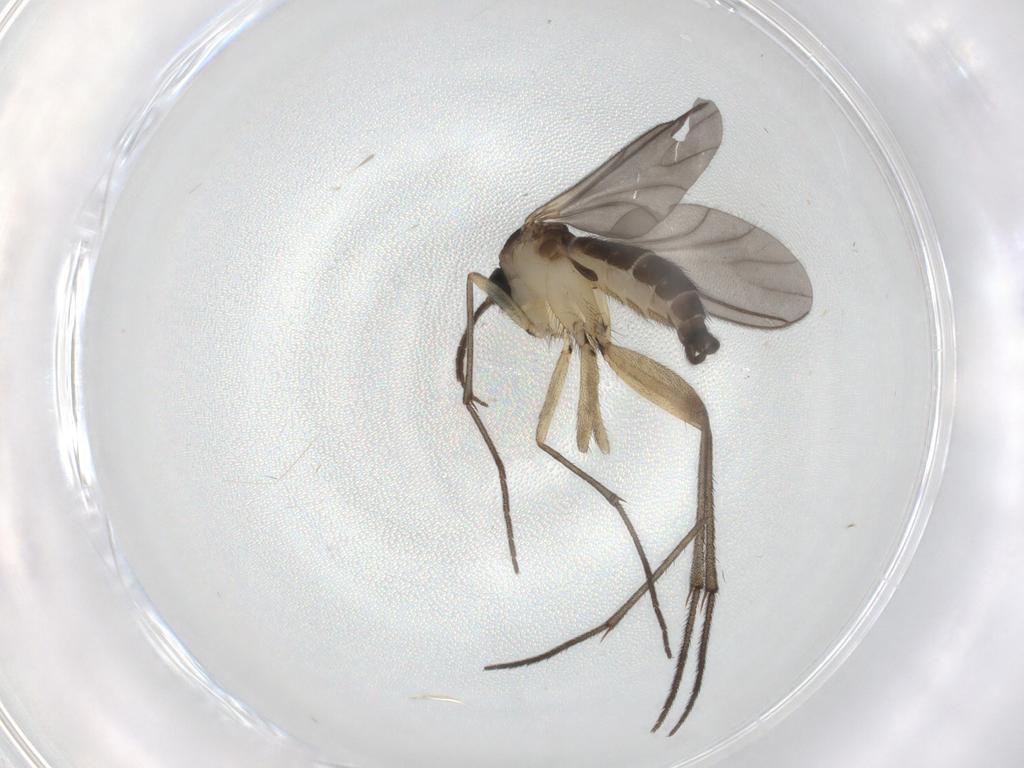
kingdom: Animalia
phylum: Arthropoda
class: Insecta
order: Diptera
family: Sciaridae
